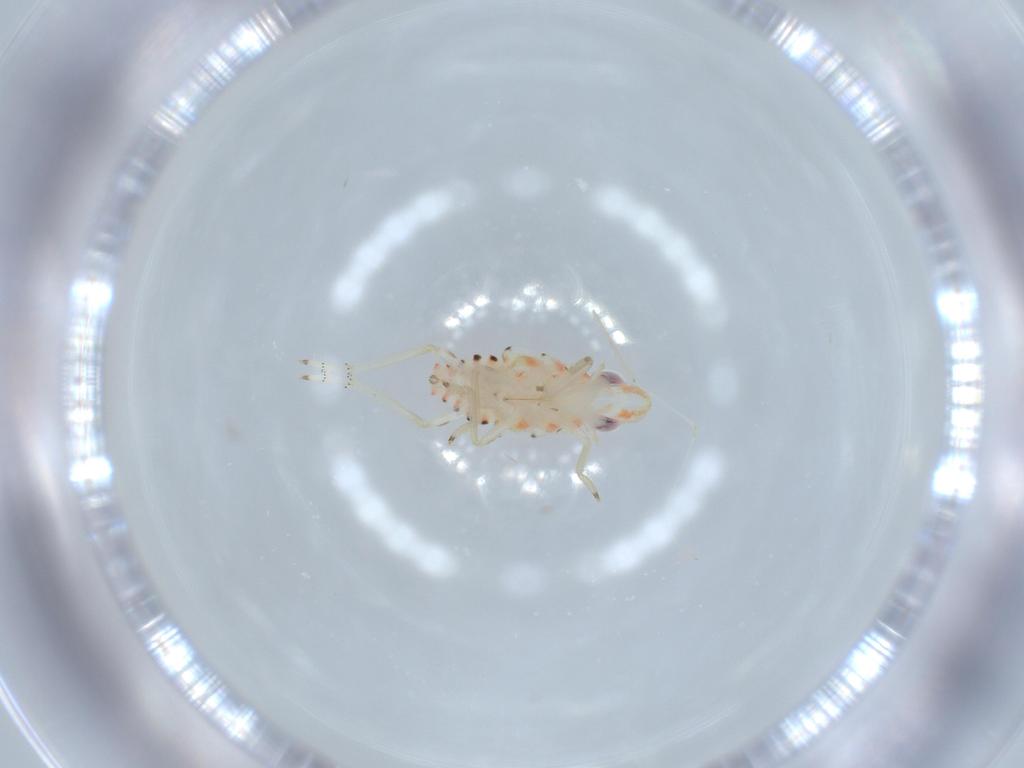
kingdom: Animalia
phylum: Arthropoda
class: Insecta
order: Hemiptera
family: Tropiduchidae
